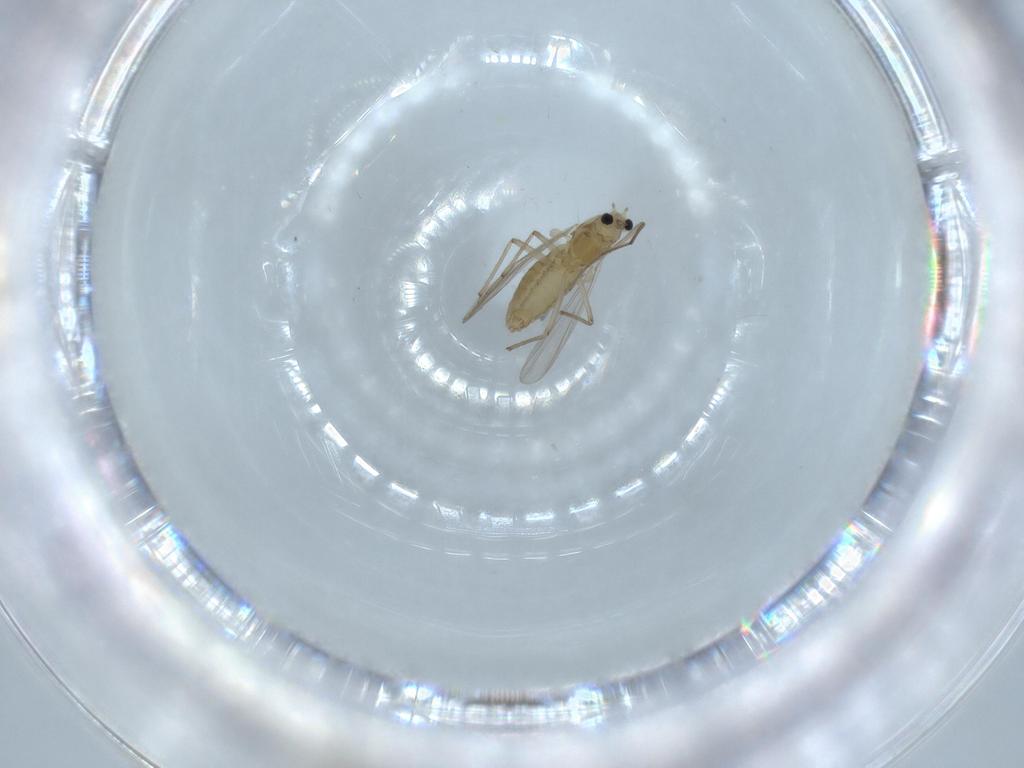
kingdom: Animalia
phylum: Arthropoda
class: Insecta
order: Diptera
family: Chironomidae
